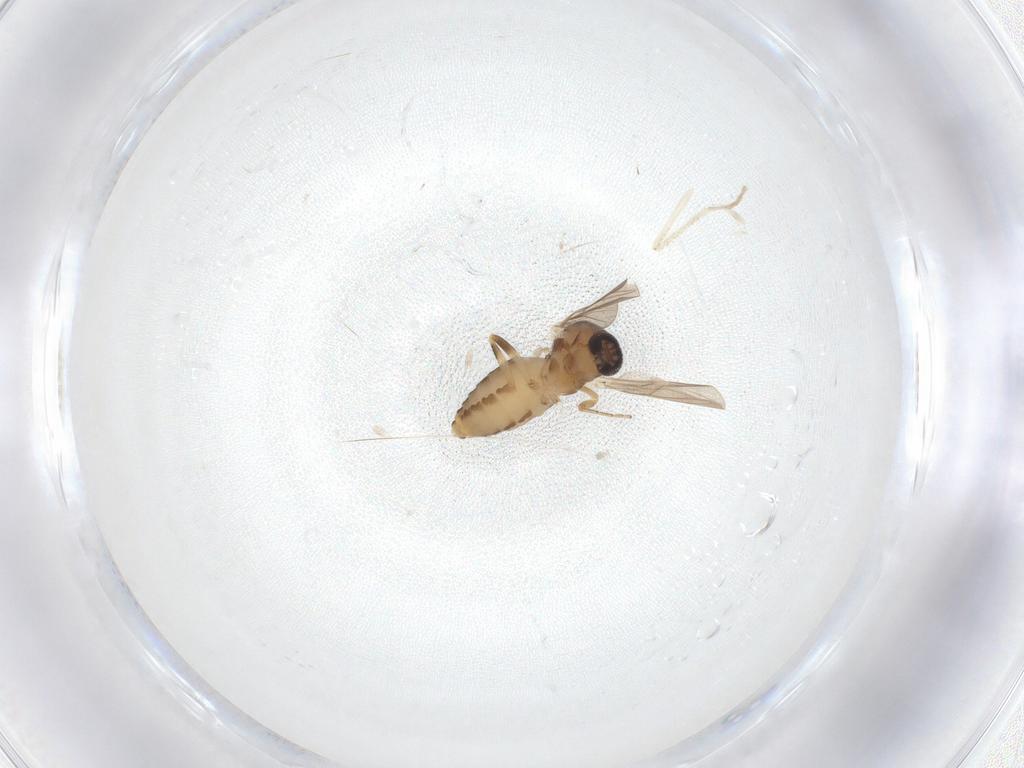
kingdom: Animalia
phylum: Arthropoda
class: Insecta
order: Diptera
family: Ceratopogonidae
